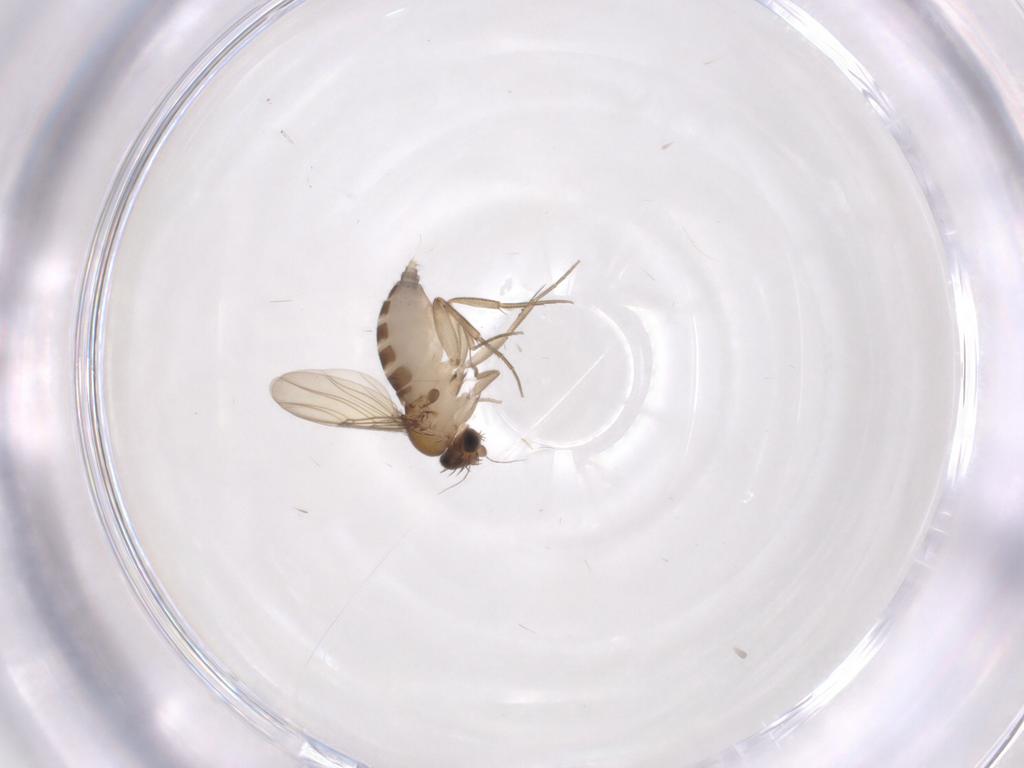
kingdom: Animalia
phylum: Arthropoda
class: Insecta
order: Diptera
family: Phoridae
